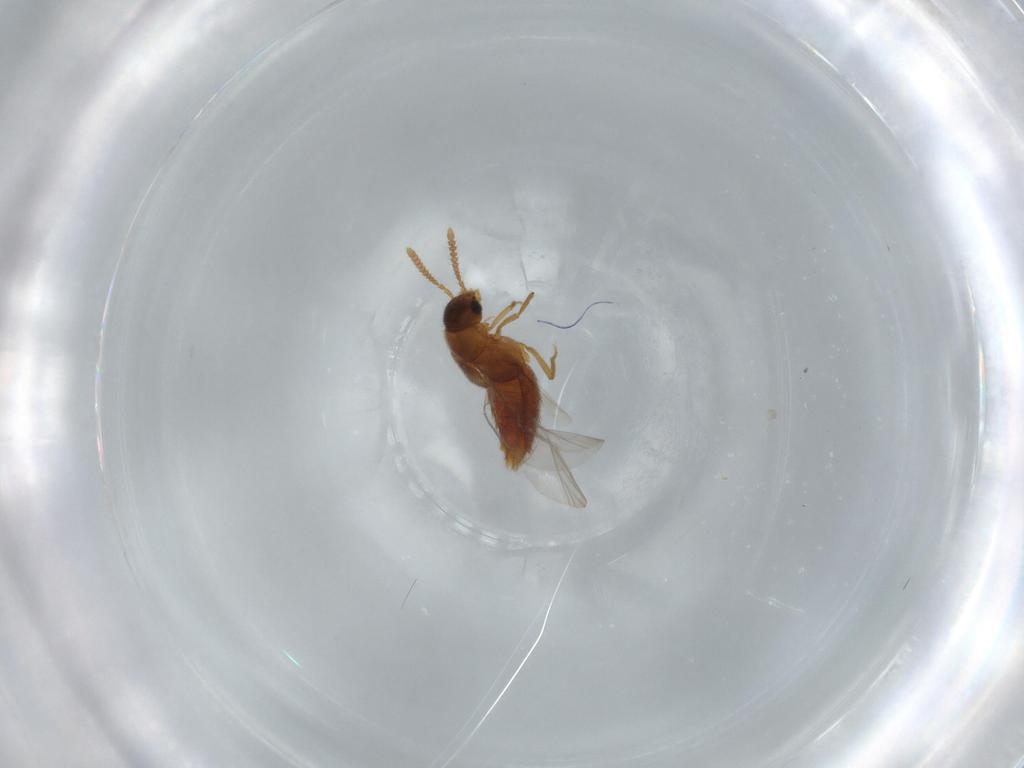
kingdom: Animalia
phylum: Arthropoda
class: Insecta
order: Coleoptera
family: Staphylinidae
